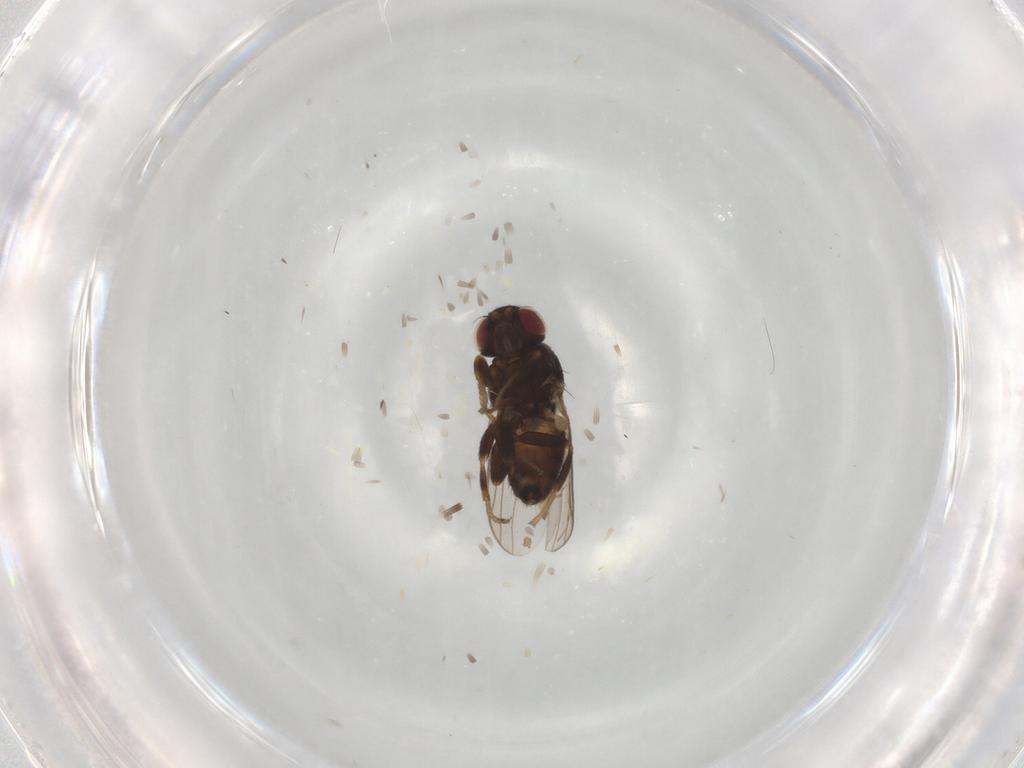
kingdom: Animalia
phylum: Arthropoda
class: Insecta
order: Diptera
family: Chloropidae
